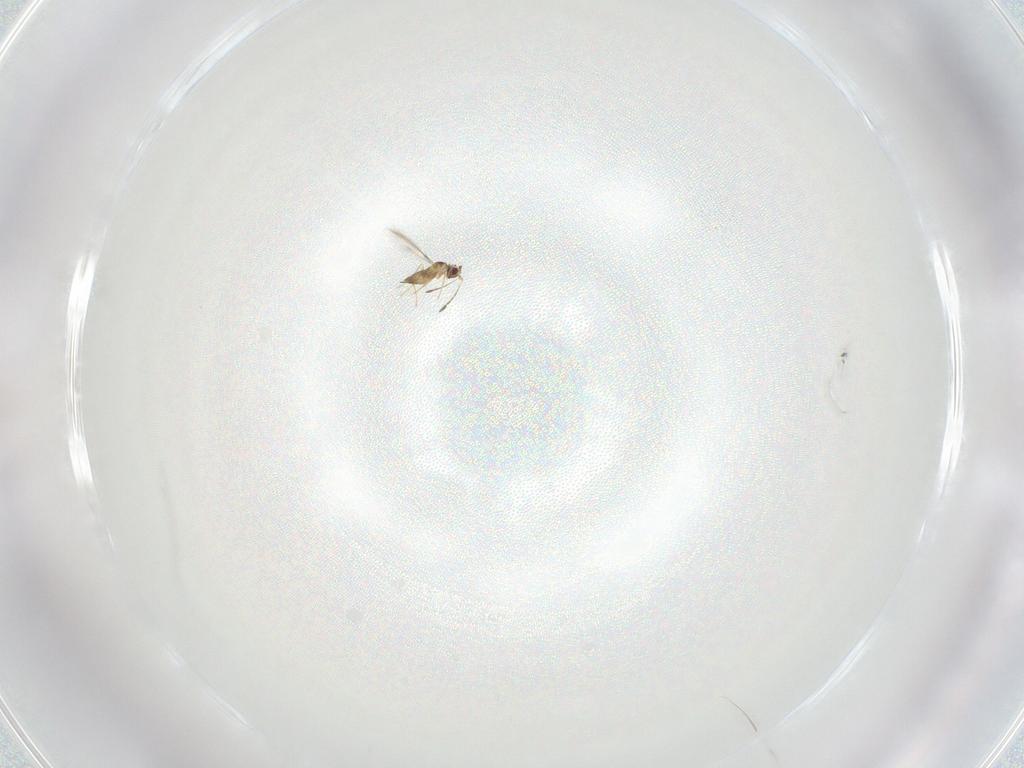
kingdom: Animalia
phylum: Arthropoda
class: Insecta
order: Hymenoptera
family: Mymaridae
